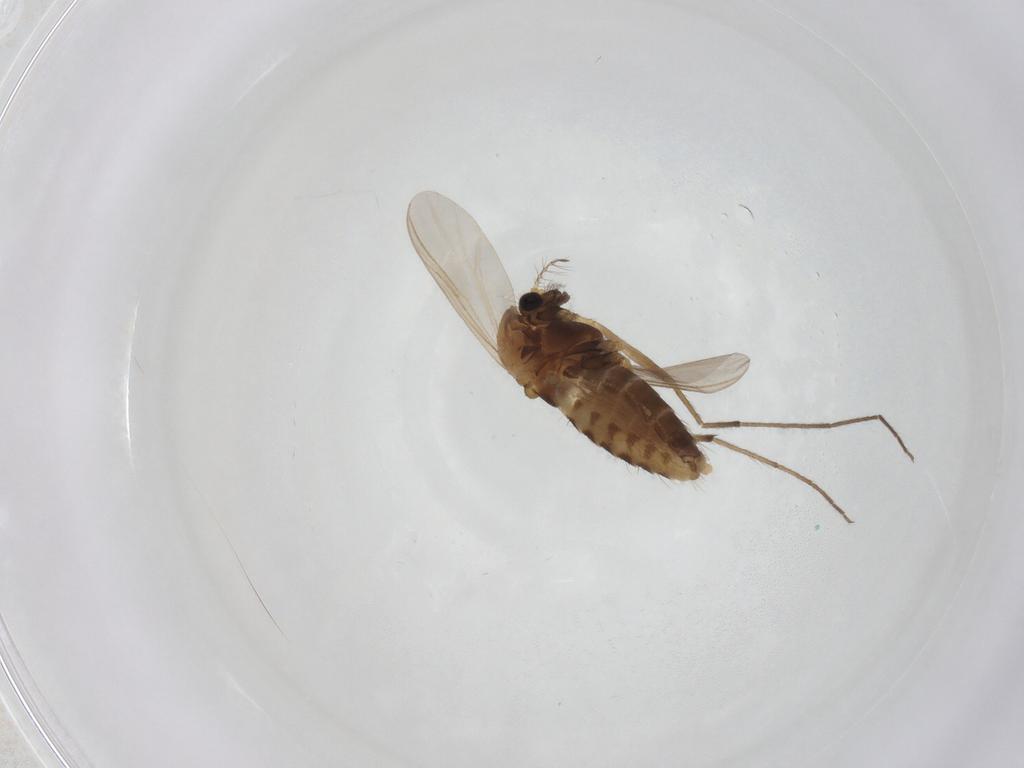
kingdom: Animalia
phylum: Arthropoda
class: Insecta
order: Diptera
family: Chironomidae
